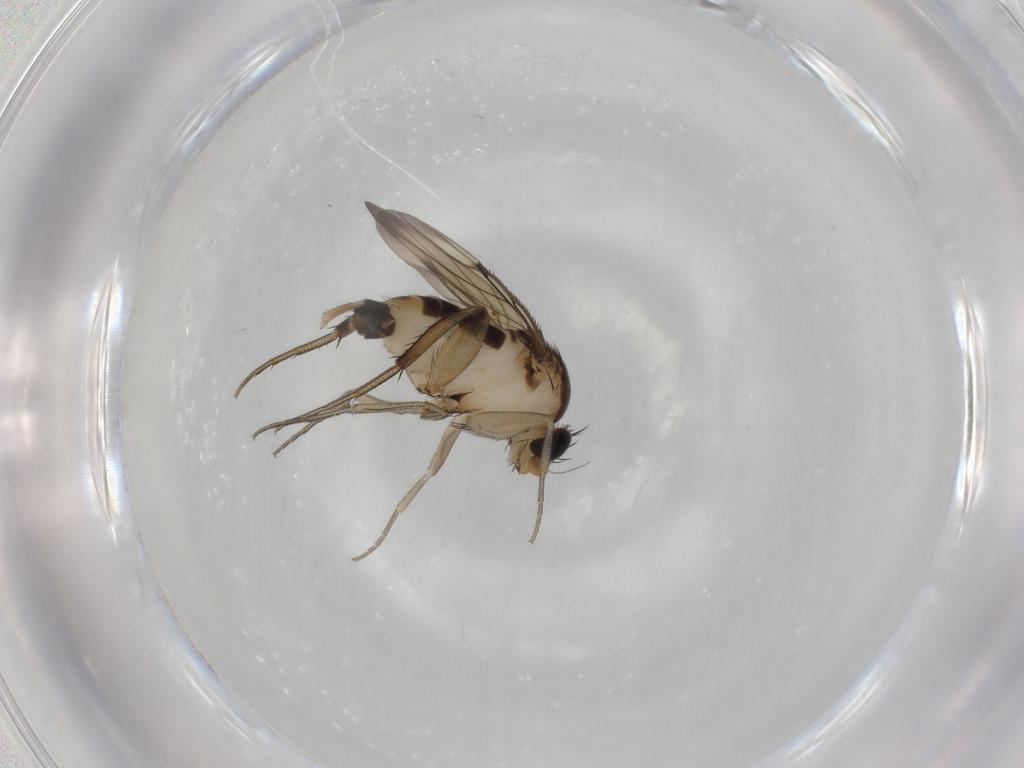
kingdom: Animalia
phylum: Arthropoda
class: Insecta
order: Diptera
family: Phoridae
